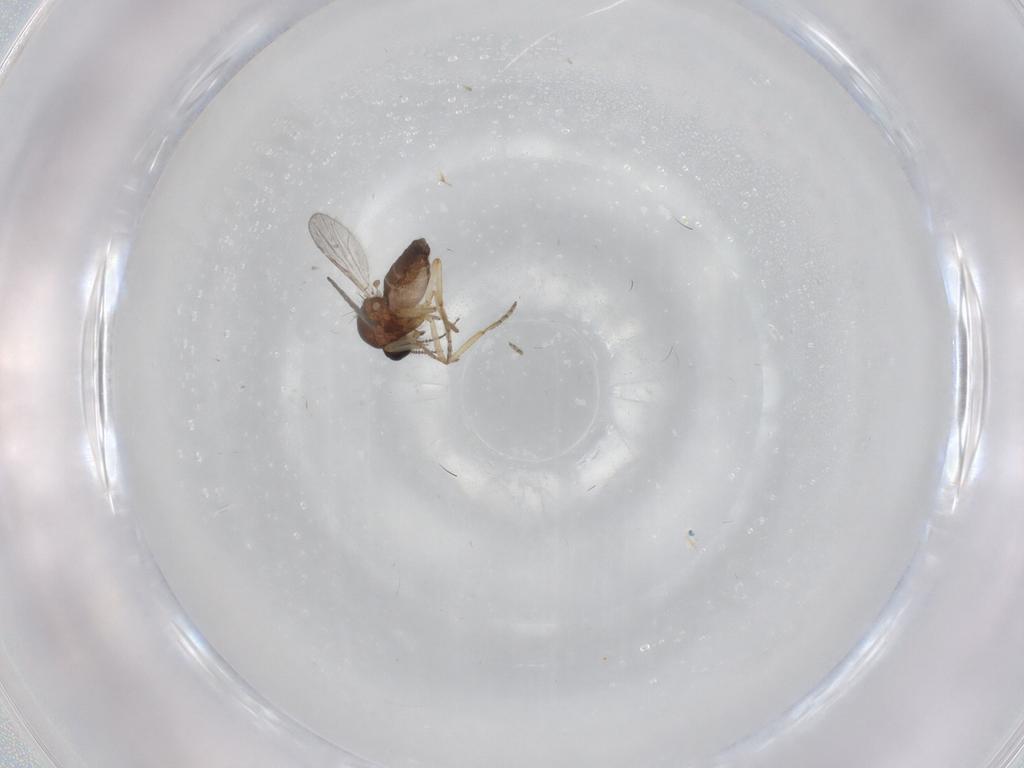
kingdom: Animalia
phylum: Arthropoda
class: Insecta
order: Diptera
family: Ceratopogonidae
